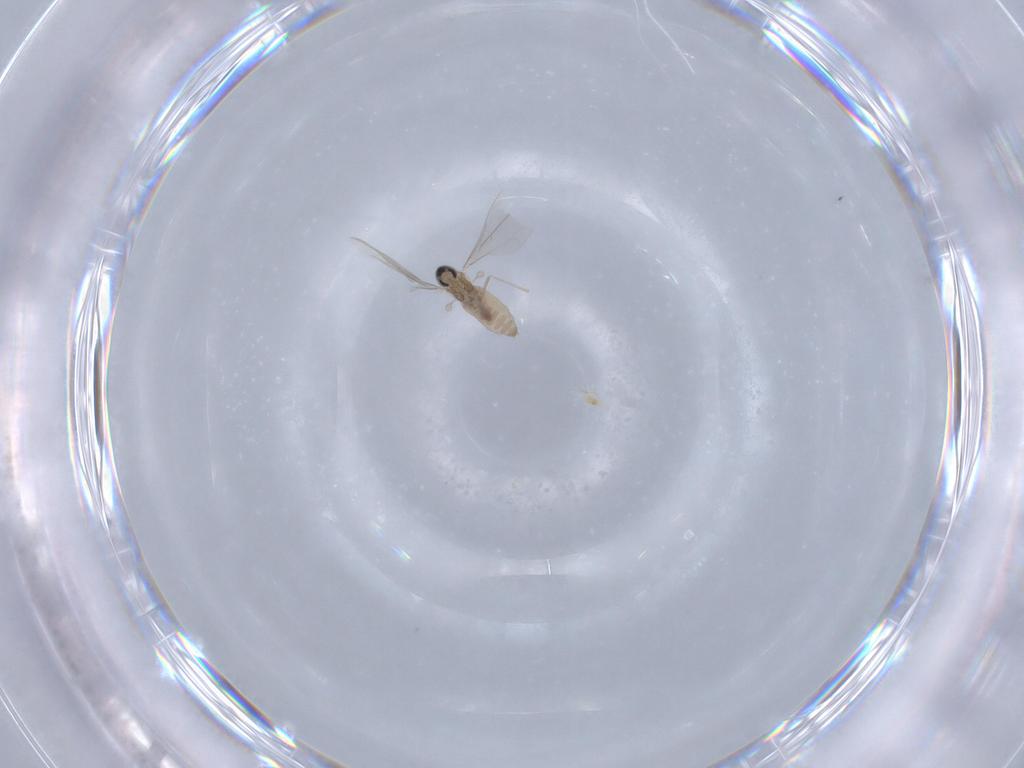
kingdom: Animalia
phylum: Arthropoda
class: Insecta
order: Diptera
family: Cecidomyiidae
